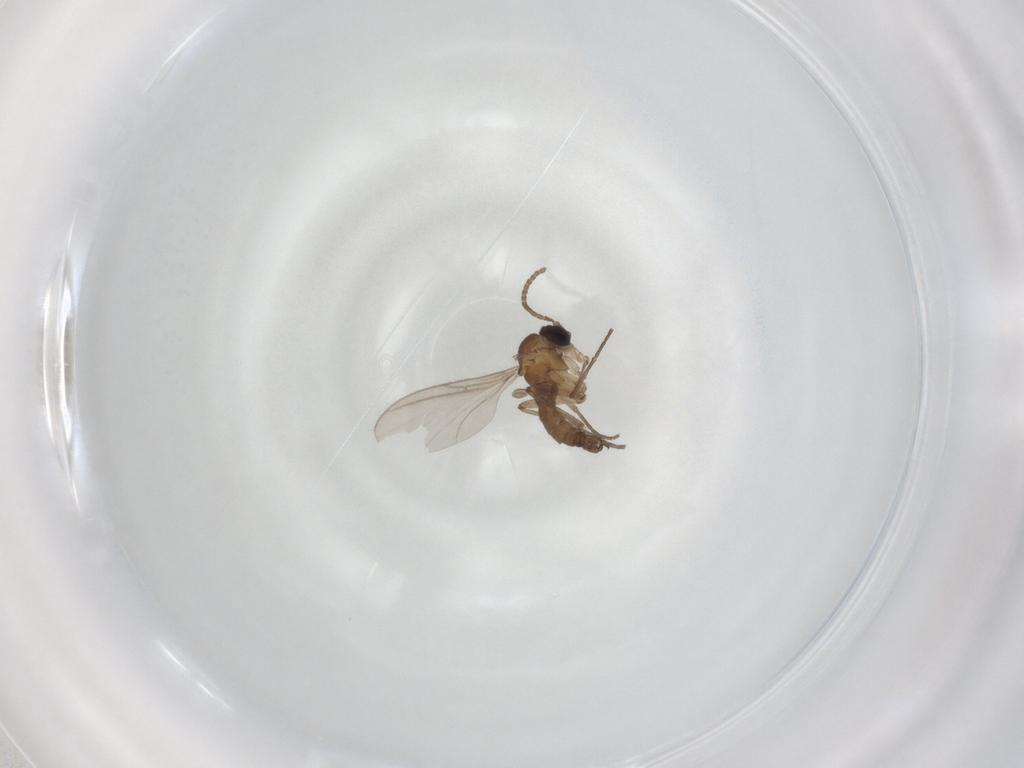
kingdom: Animalia
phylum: Arthropoda
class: Insecta
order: Diptera
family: Sciaridae
